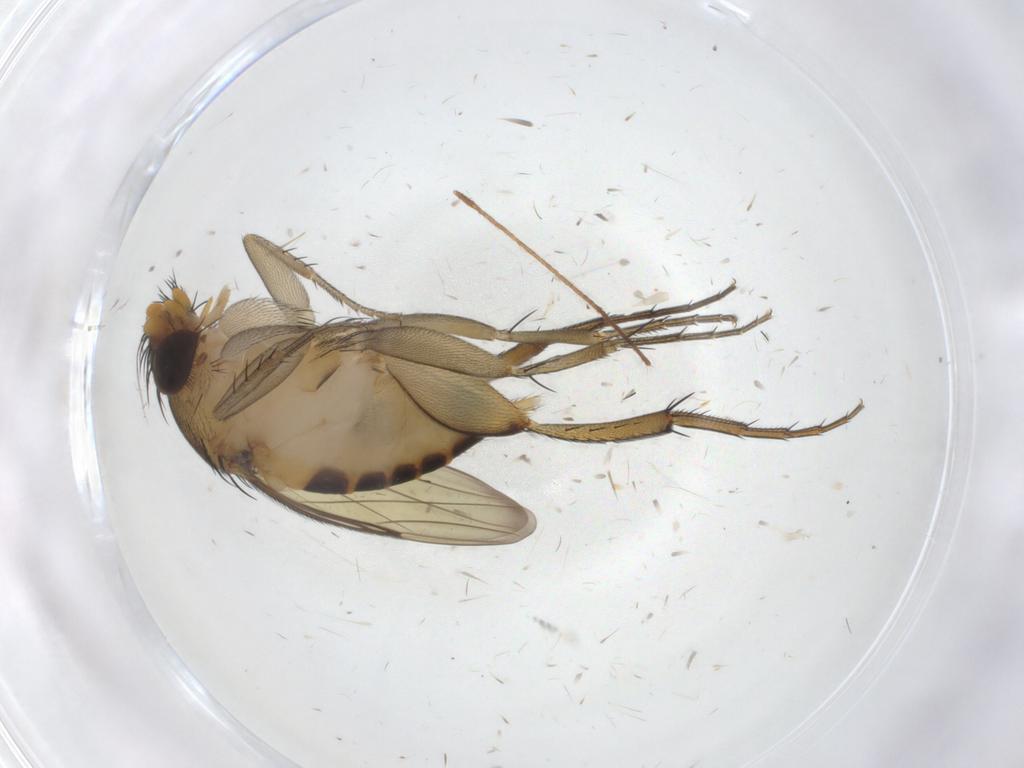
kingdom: Animalia
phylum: Arthropoda
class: Insecta
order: Diptera
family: Phoridae
